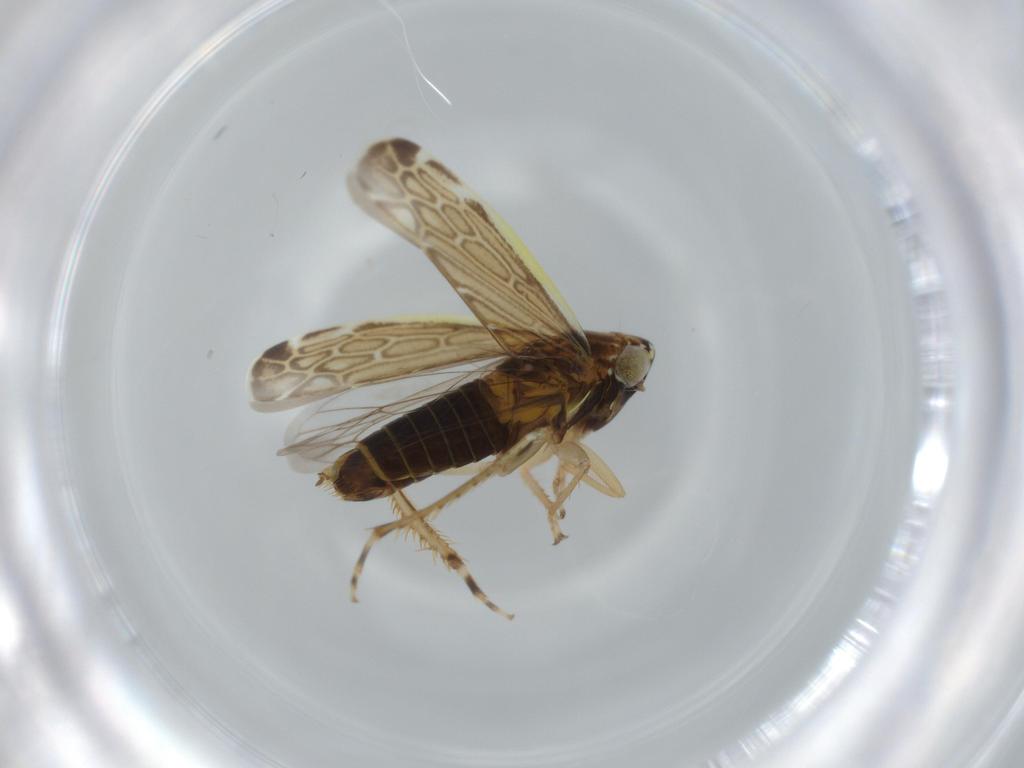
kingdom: Animalia
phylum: Arthropoda
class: Insecta
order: Hemiptera
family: Cicadellidae
